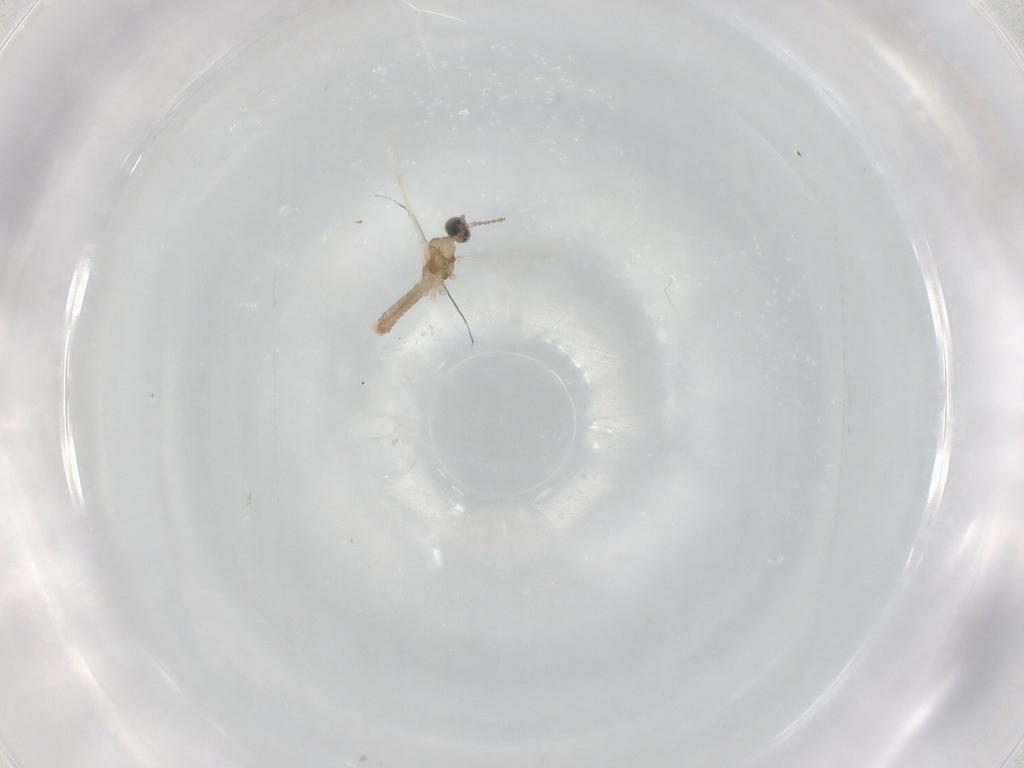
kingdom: Animalia
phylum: Arthropoda
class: Insecta
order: Diptera
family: Cecidomyiidae
